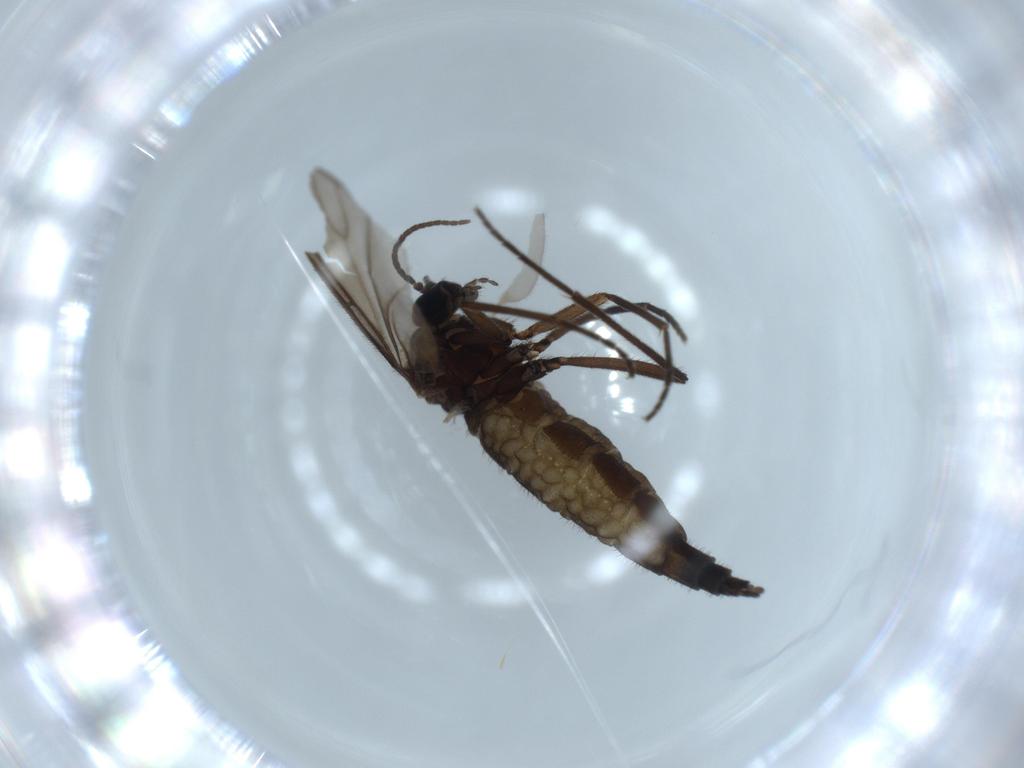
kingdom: Animalia
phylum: Arthropoda
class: Insecta
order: Diptera
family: Sciaridae
